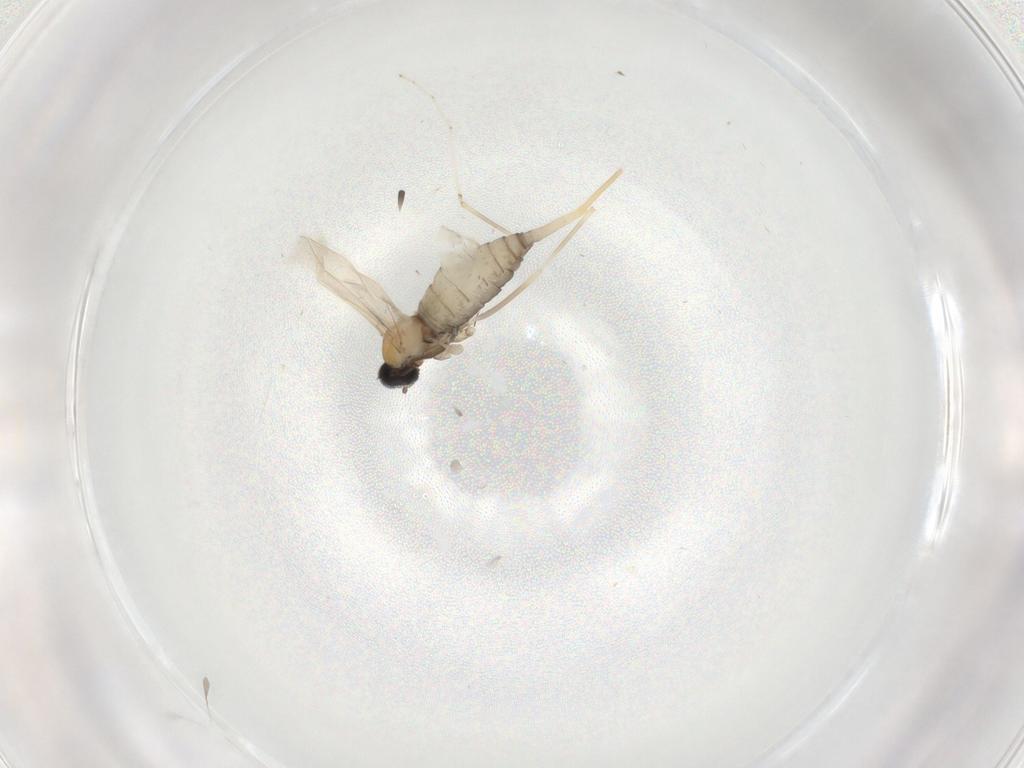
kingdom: Animalia
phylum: Arthropoda
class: Insecta
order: Diptera
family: Cecidomyiidae
